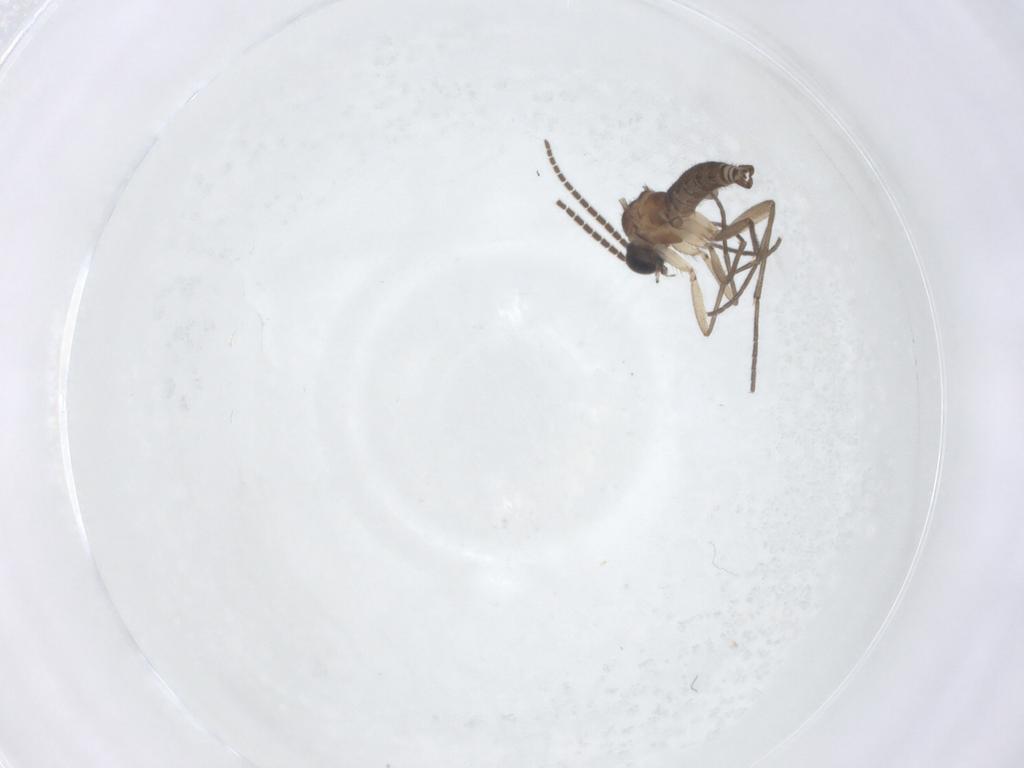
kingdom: Animalia
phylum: Arthropoda
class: Insecta
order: Diptera
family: Sciaridae
